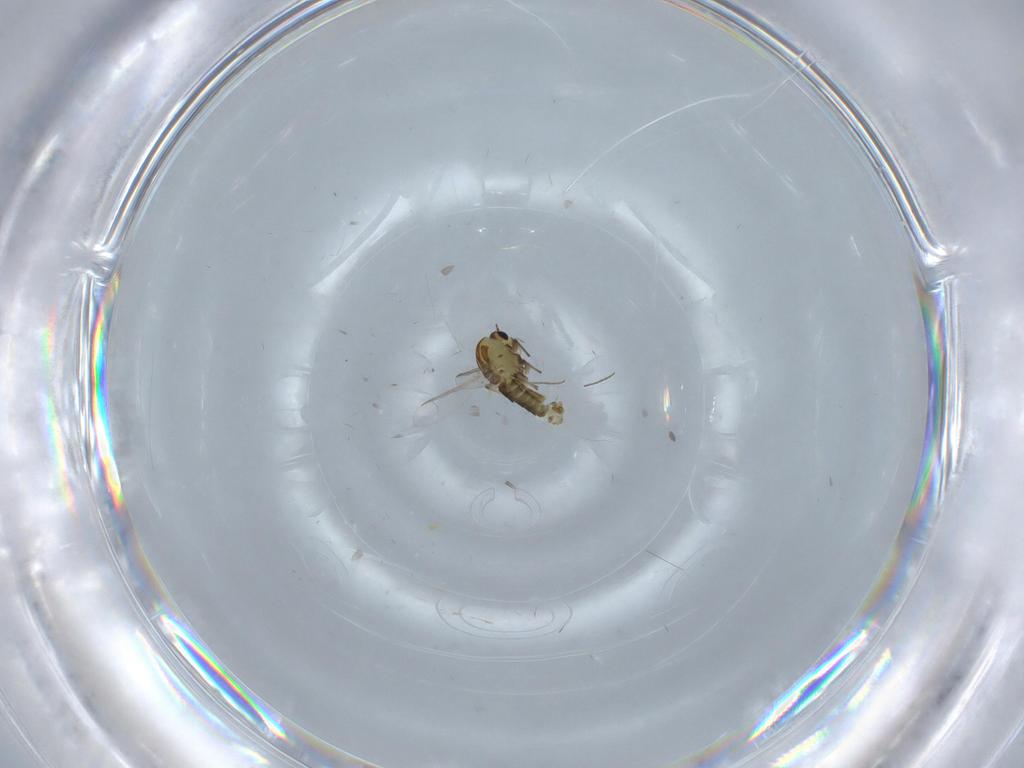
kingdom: Animalia
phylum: Arthropoda
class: Insecta
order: Diptera
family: Chironomidae
